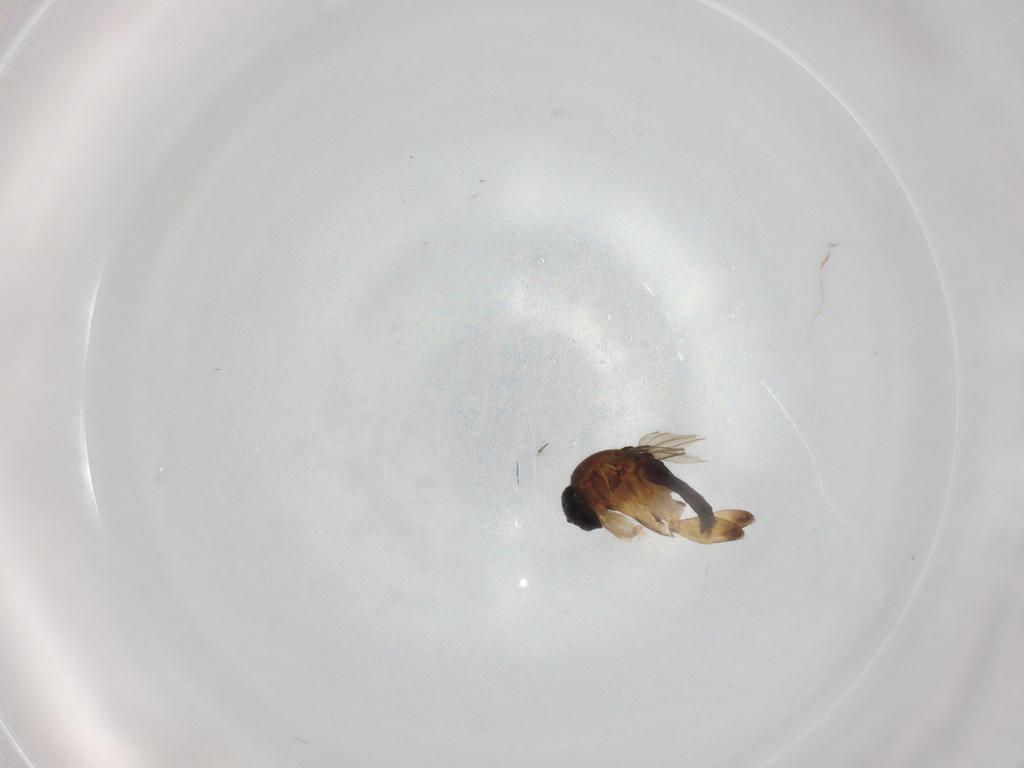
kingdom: Animalia
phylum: Arthropoda
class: Insecta
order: Diptera
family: Phoridae
